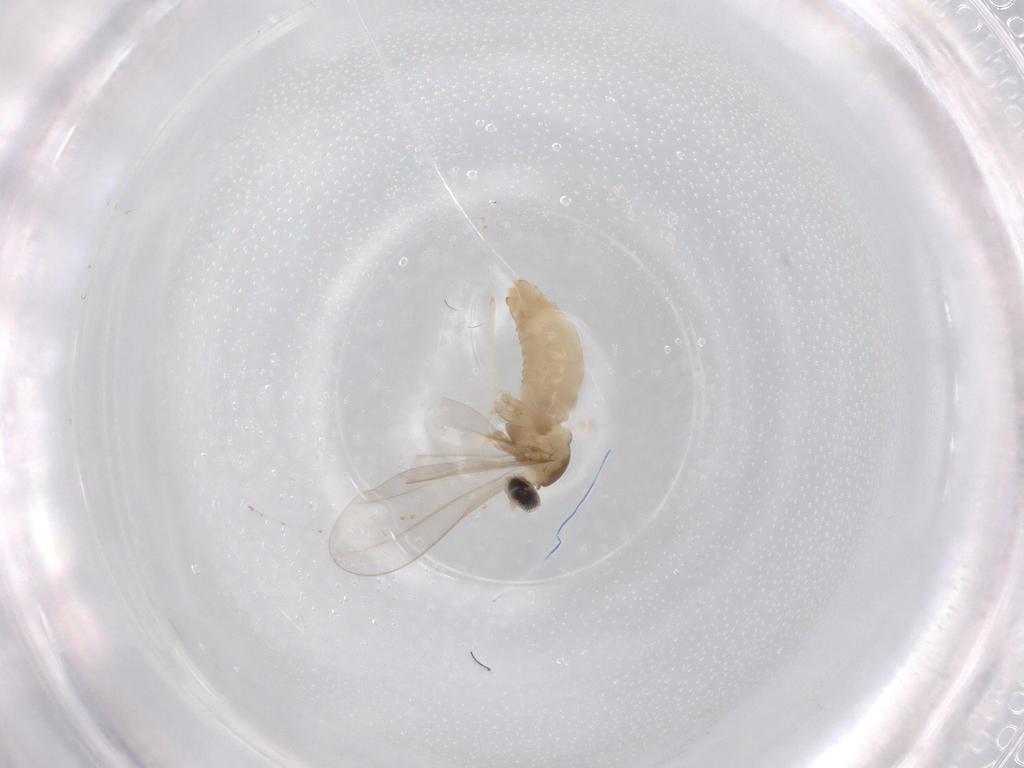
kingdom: Animalia
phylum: Arthropoda
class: Insecta
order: Diptera
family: Cecidomyiidae
